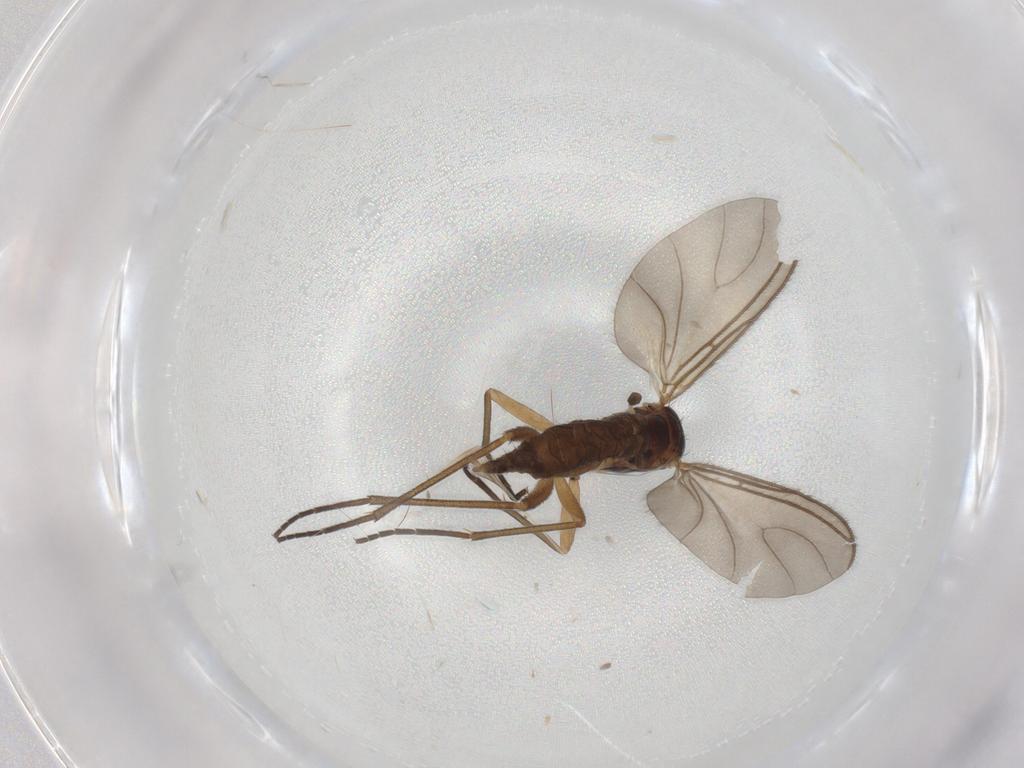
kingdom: Animalia
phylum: Arthropoda
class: Insecta
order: Diptera
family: Sciaridae
